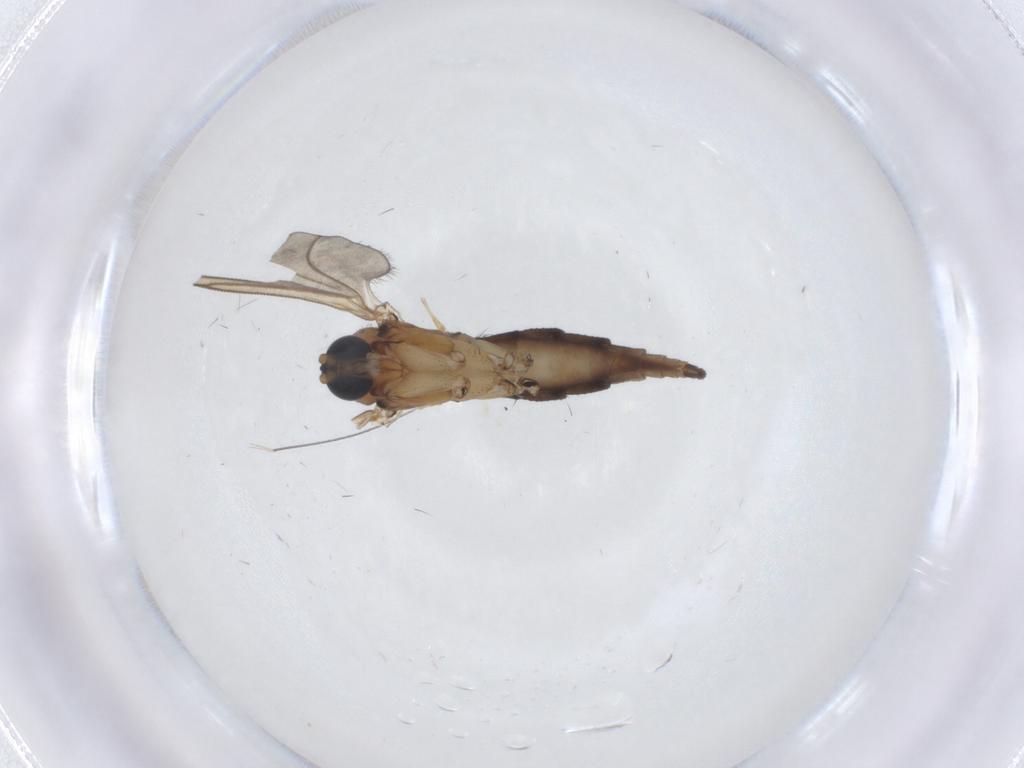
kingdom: Animalia
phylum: Arthropoda
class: Insecta
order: Diptera
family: Sciaridae
